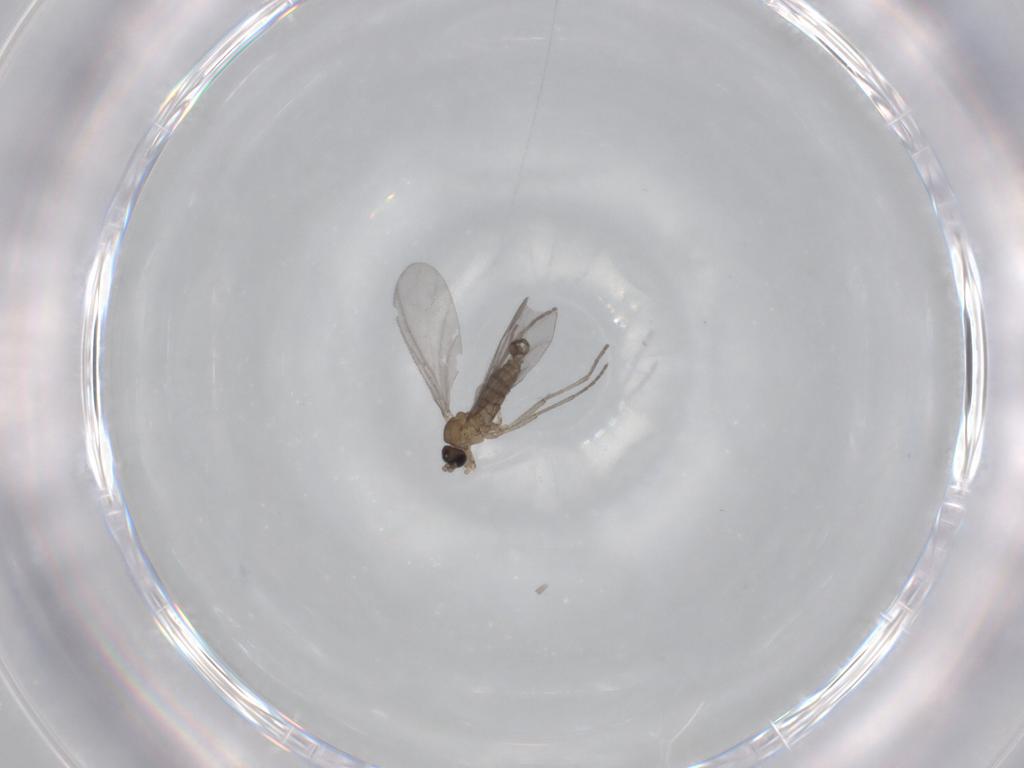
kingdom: Animalia
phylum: Arthropoda
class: Insecta
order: Diptera
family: Sciaridae
